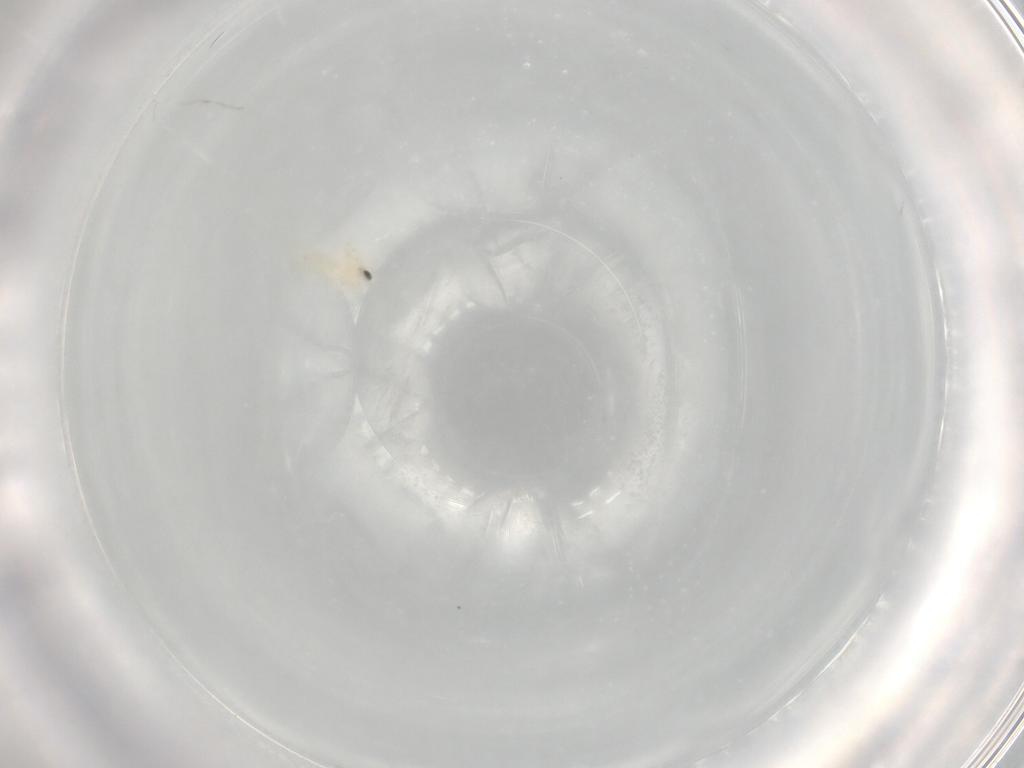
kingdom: Animalia
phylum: Arthropoda
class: Insecta
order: Hemiptera
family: Aleyrodidae
